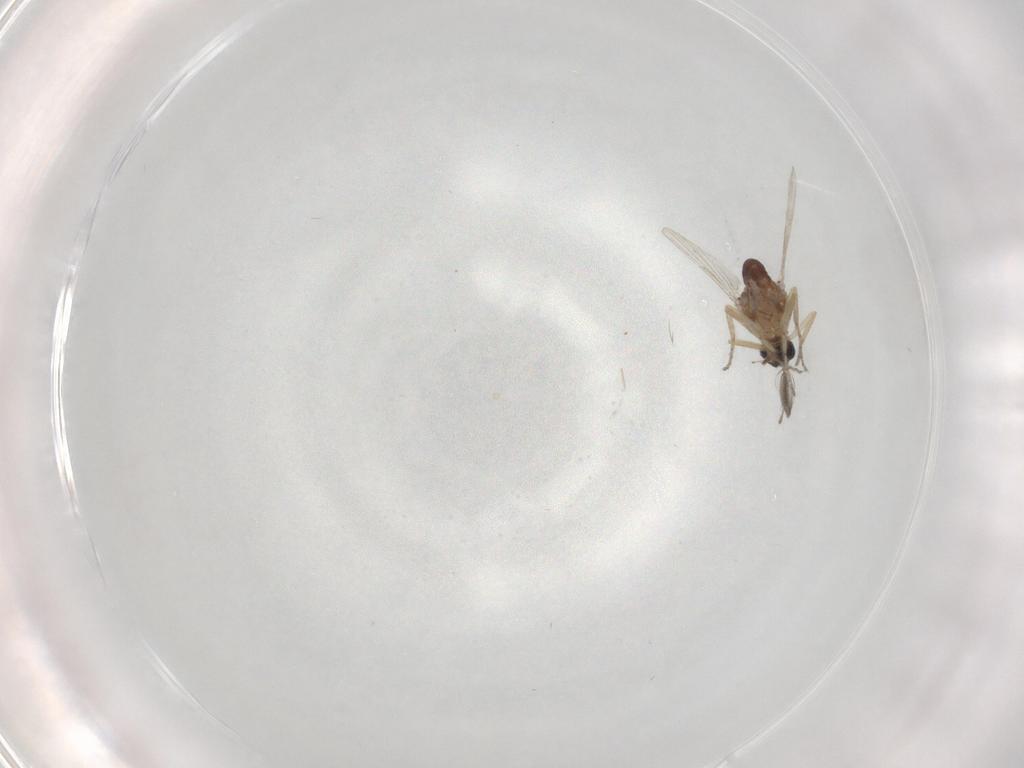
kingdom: Animalia
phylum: Arthropoda
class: Insecta
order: Diptera
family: Ceratopogonidae
